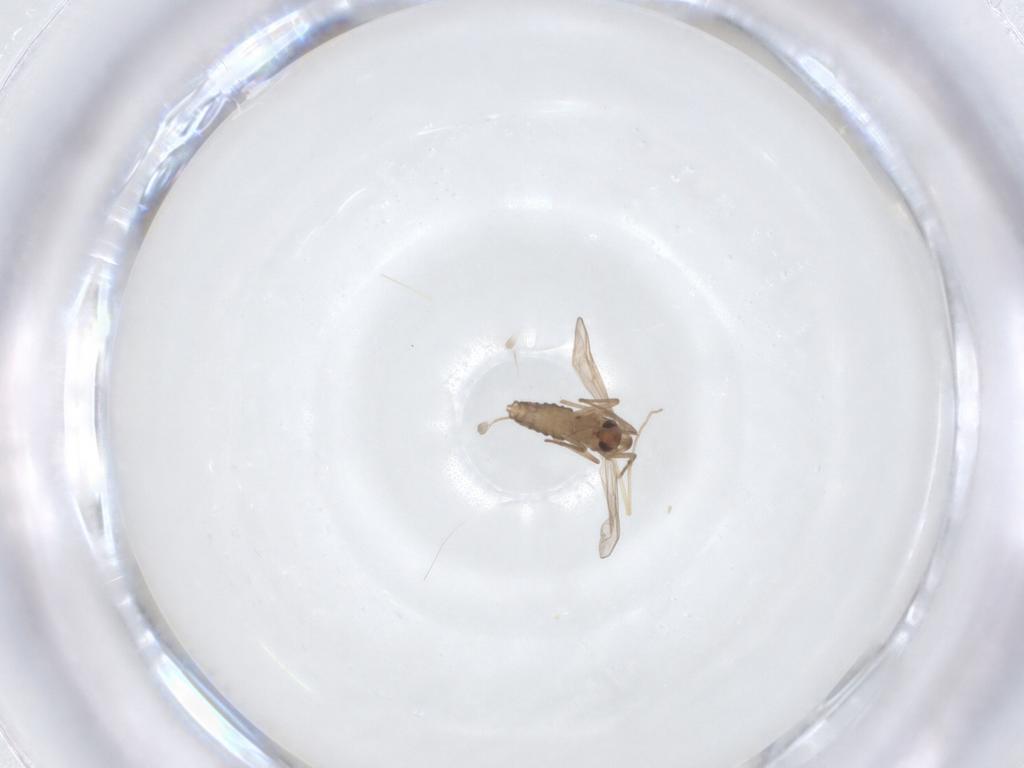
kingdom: Animalia
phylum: Arthropoda
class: Insecta
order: Diptera
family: Chironomidae
